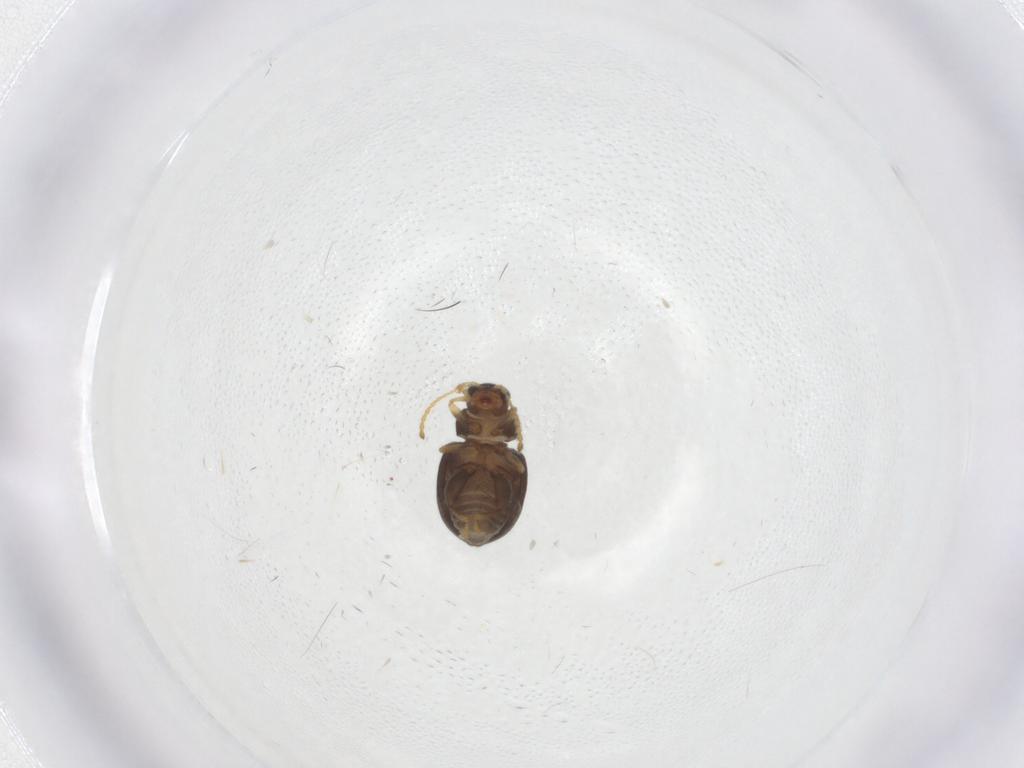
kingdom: Animalia
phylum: Arthropoda
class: Insecta
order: Coleoptera
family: Chrysomelidae
